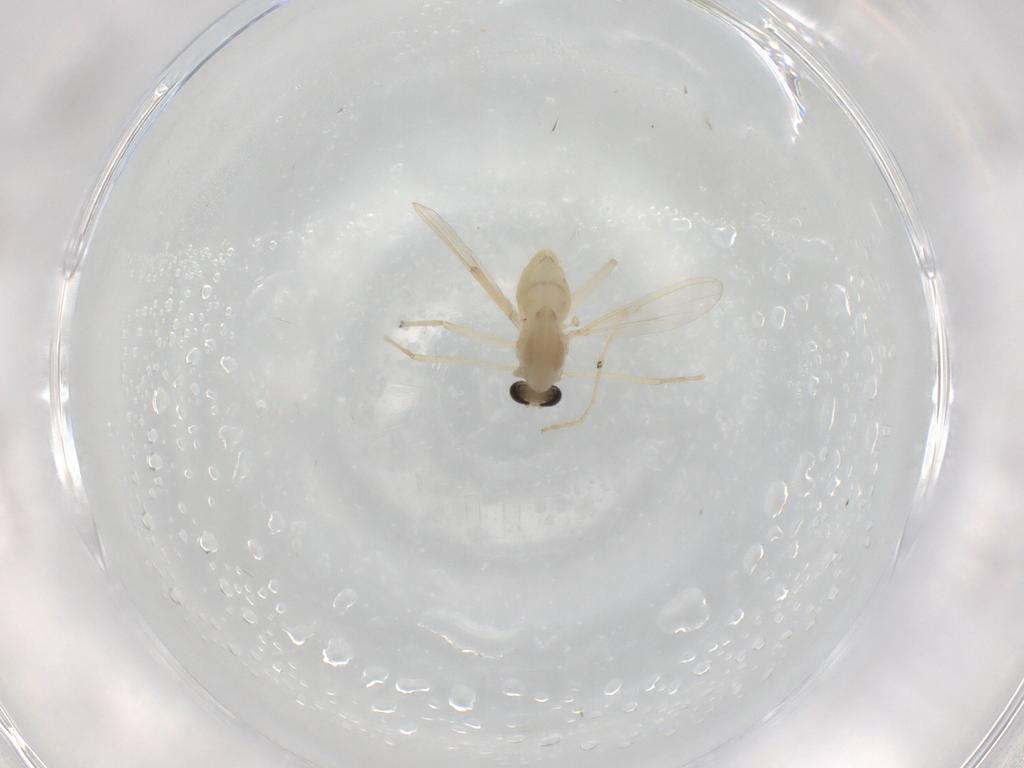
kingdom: Animalia
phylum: Arthropoda
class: Insecta
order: Diptera
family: Chironomidae
